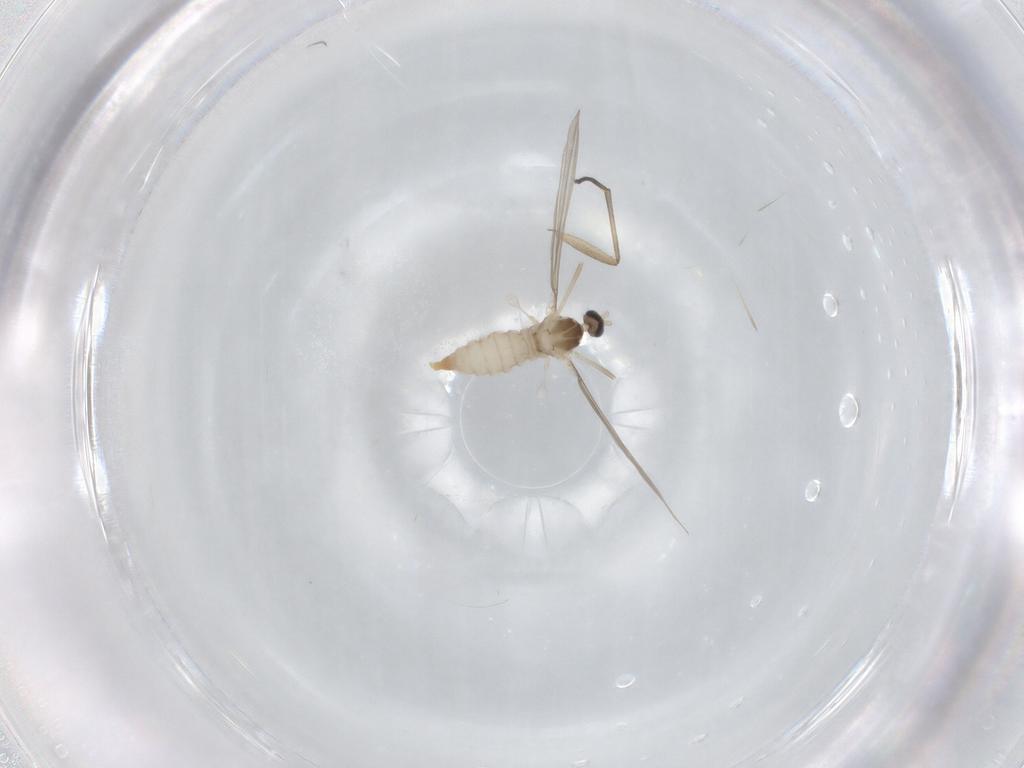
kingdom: Animalia
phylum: Arthropoda
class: Insecta
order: Diptera
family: Sciaridae
